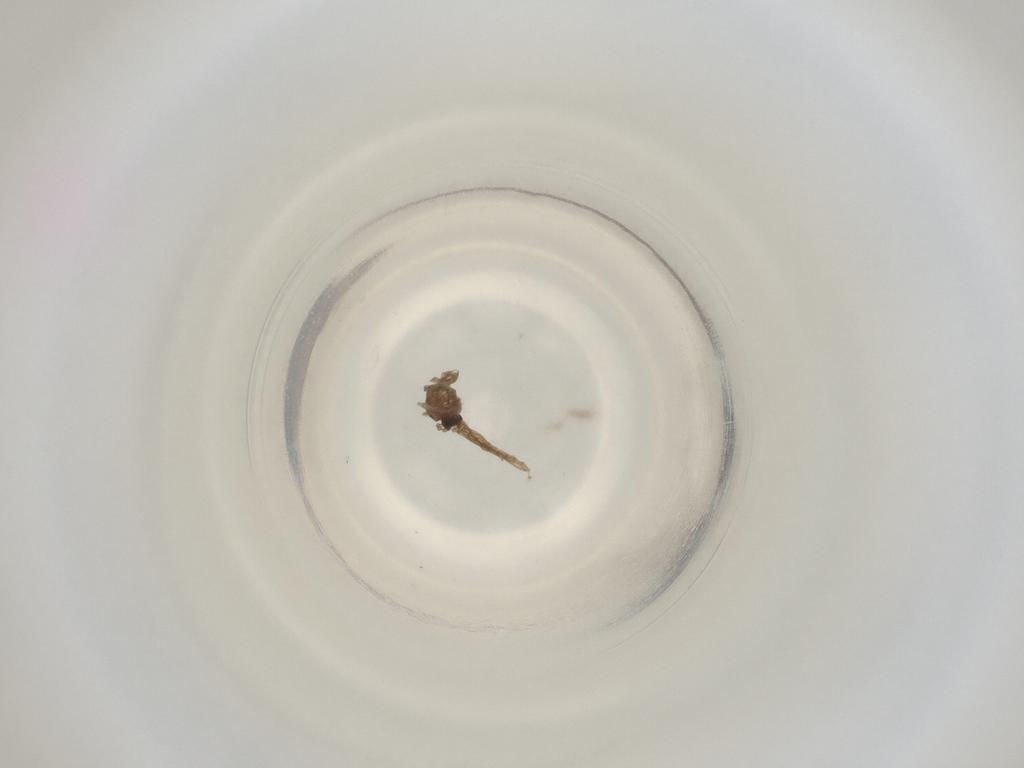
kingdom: Animalia
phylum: Arthropoda
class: Insecta
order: Diptera
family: Cecidomyiidae
